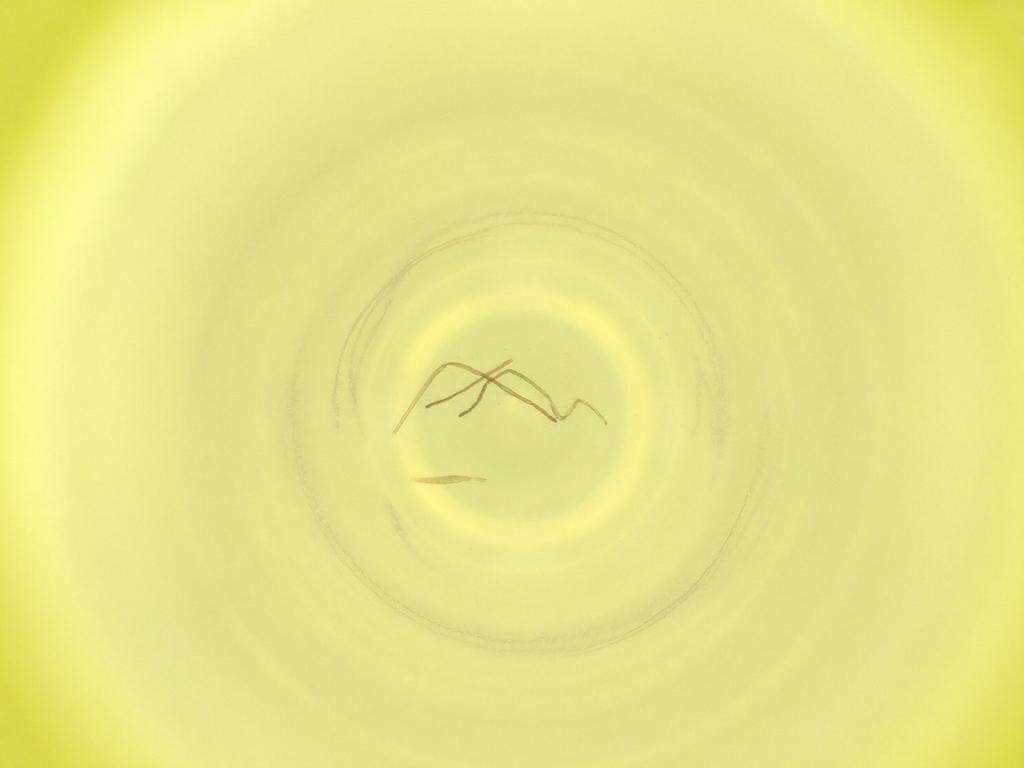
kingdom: Animalia
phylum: Arthropoda
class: Insecta
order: Diptera
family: Cecidomyiidae
